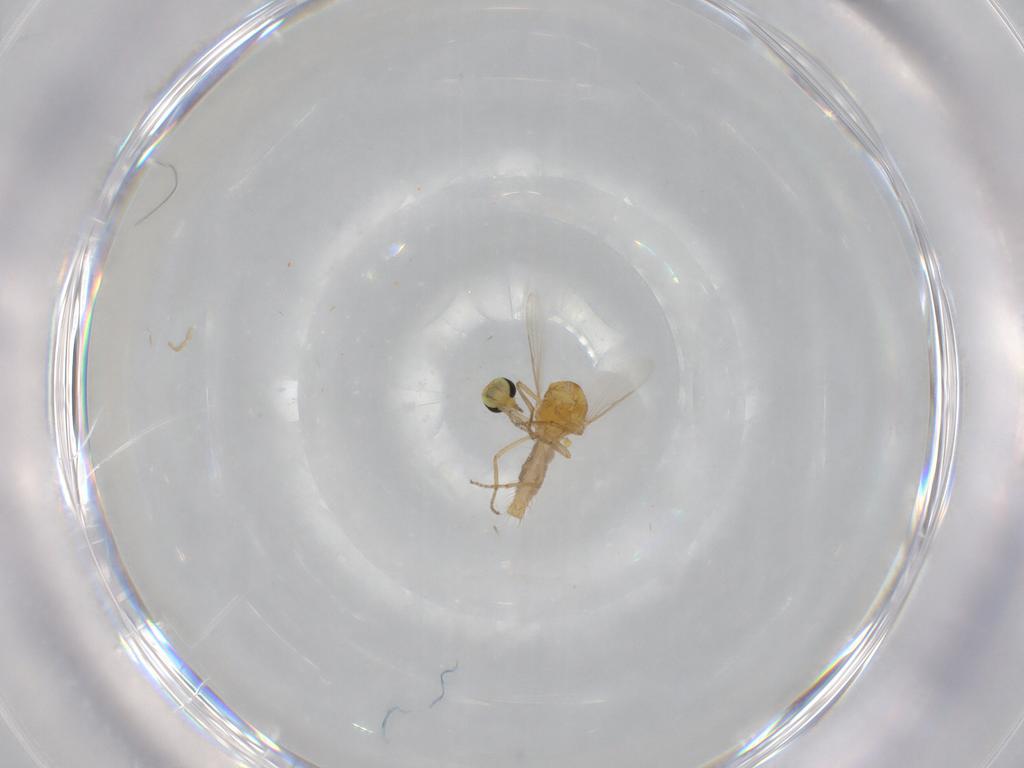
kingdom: Animalia
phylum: Arthropoda
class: Insecta
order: Diptera
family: Ceratopogonidae
